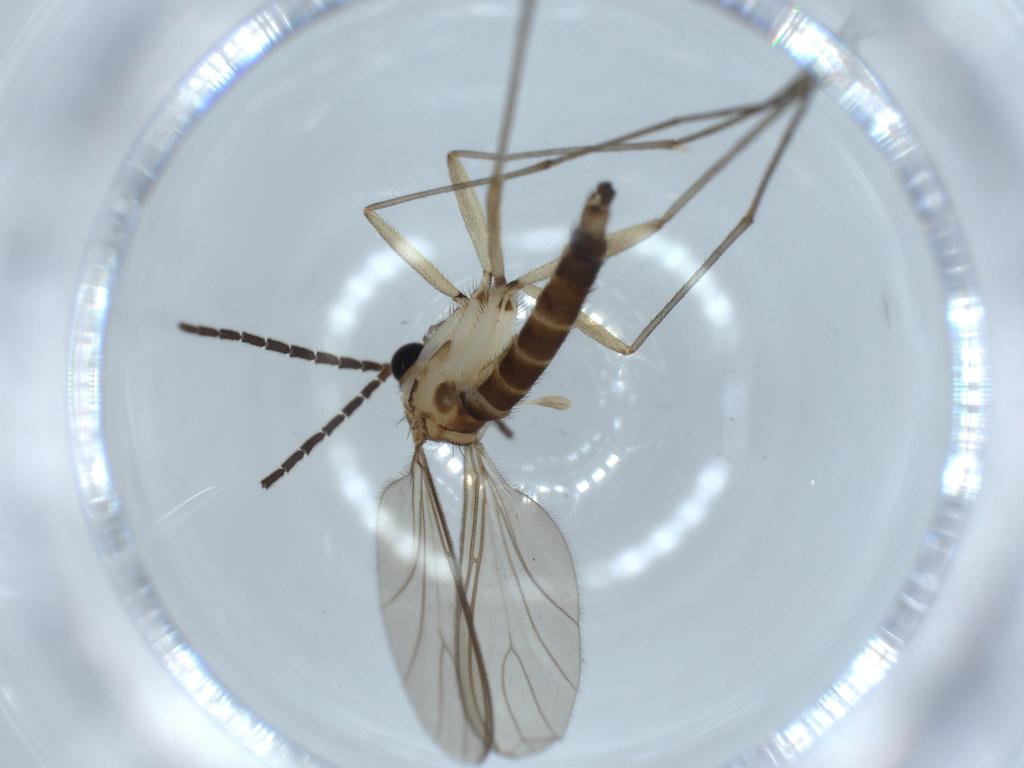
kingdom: Animalia
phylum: Arthropoda
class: Insecta
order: Diptera
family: Sciaridae
